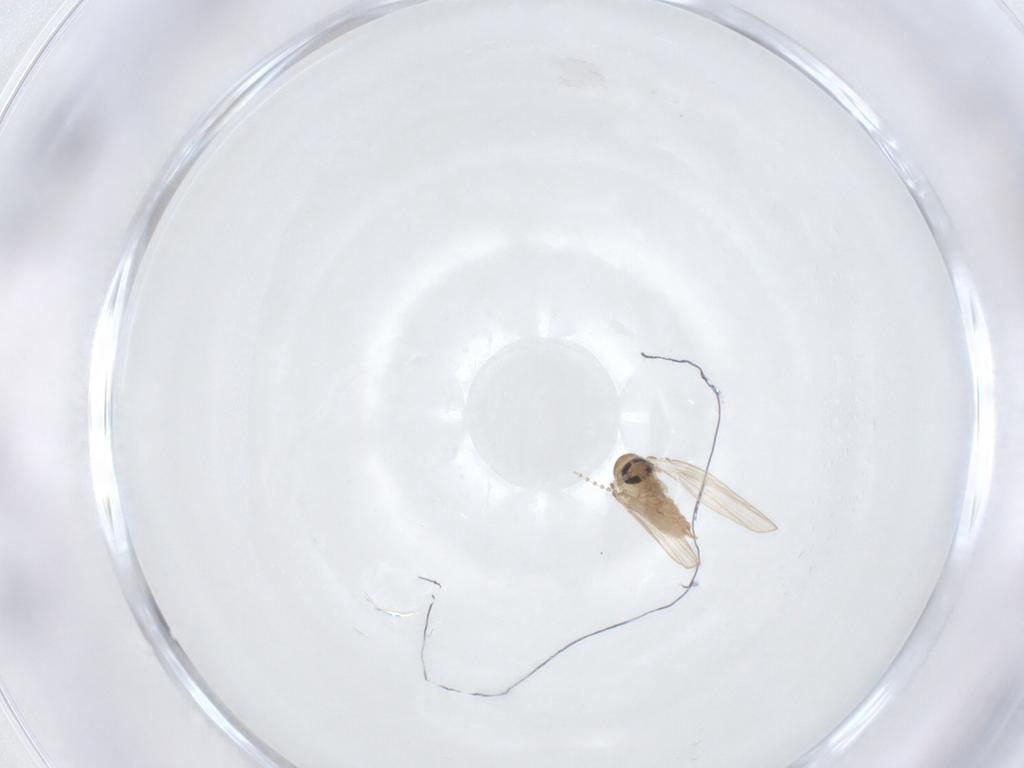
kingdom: Animalia
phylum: Arthropoda
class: Insecta
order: Diptera
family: Psychodidae
